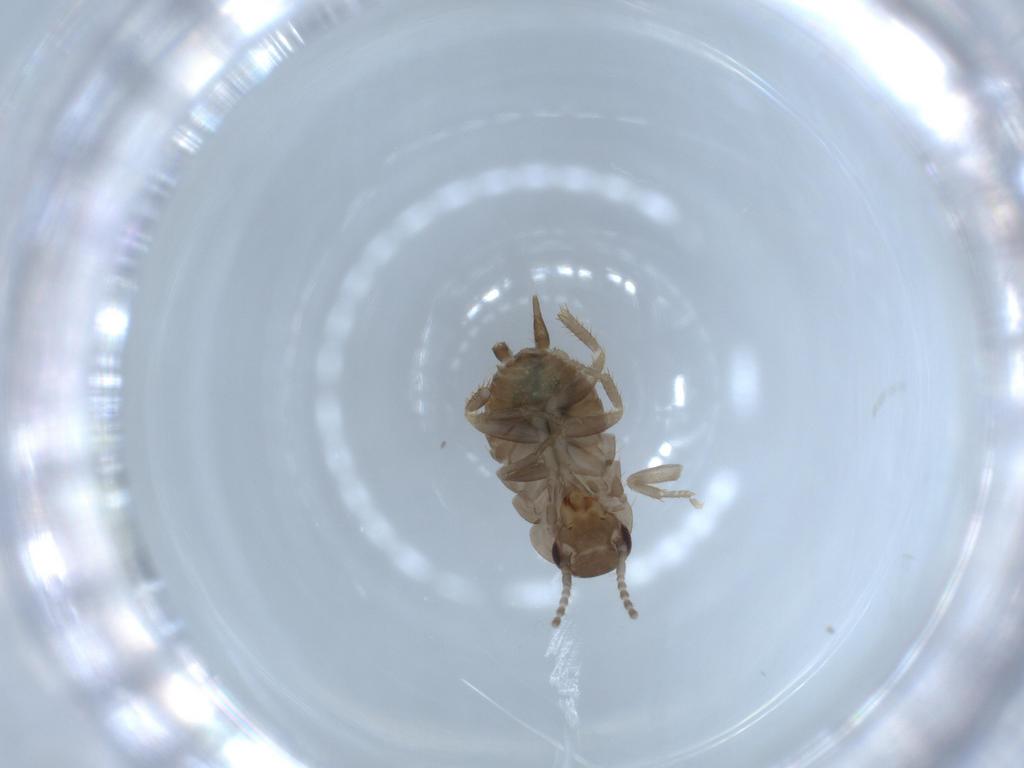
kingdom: Animalia
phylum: Arthropoda
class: Insecta
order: Blattodea
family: Ectobiidae
